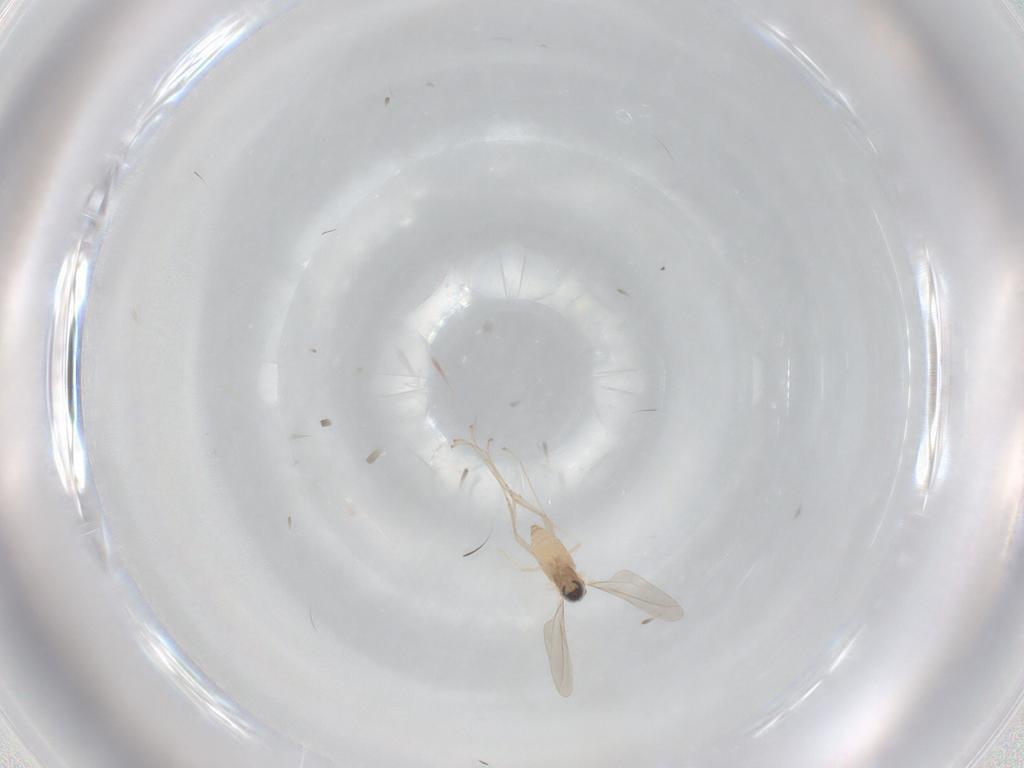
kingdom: Animalia
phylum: Arthropoda
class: Insecta
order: Diptera
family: Cecidomyiidae
